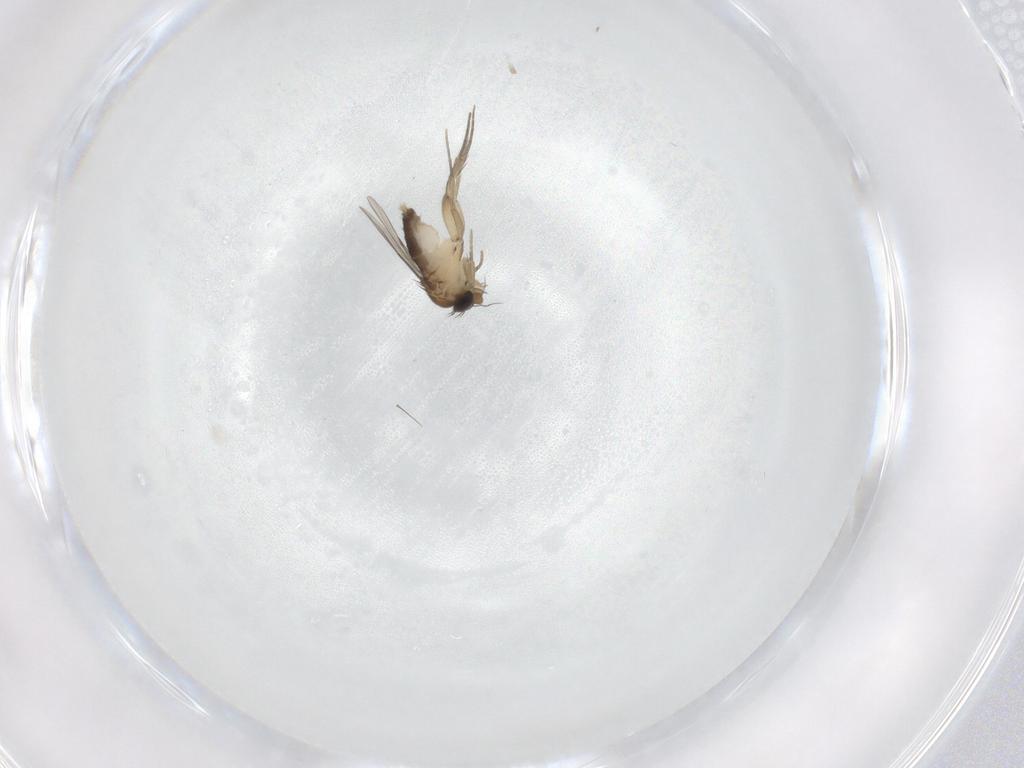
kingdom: Animalia
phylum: Arthropoda
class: Insecta
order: Diptera
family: Phoridae
